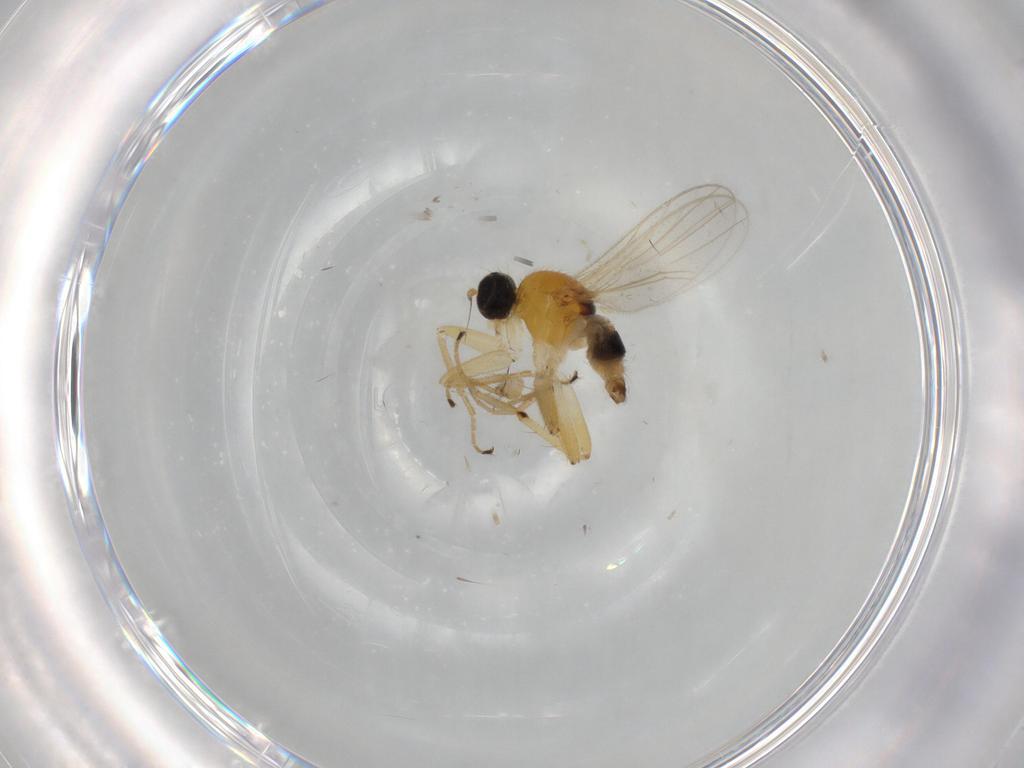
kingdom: Animalia
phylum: Arthropoda
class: Insecta
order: Diptera
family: Hybotidae
